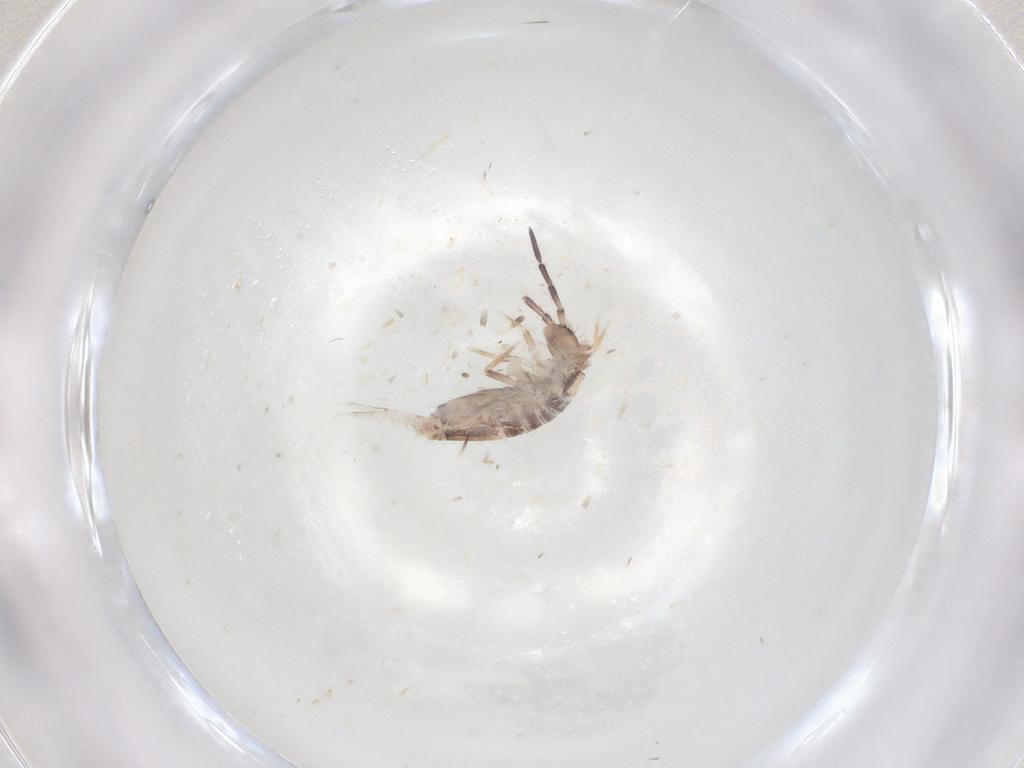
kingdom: Animalia
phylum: Arthropoda
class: Collembola
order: Poduromorpha
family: Hypogastruridae
